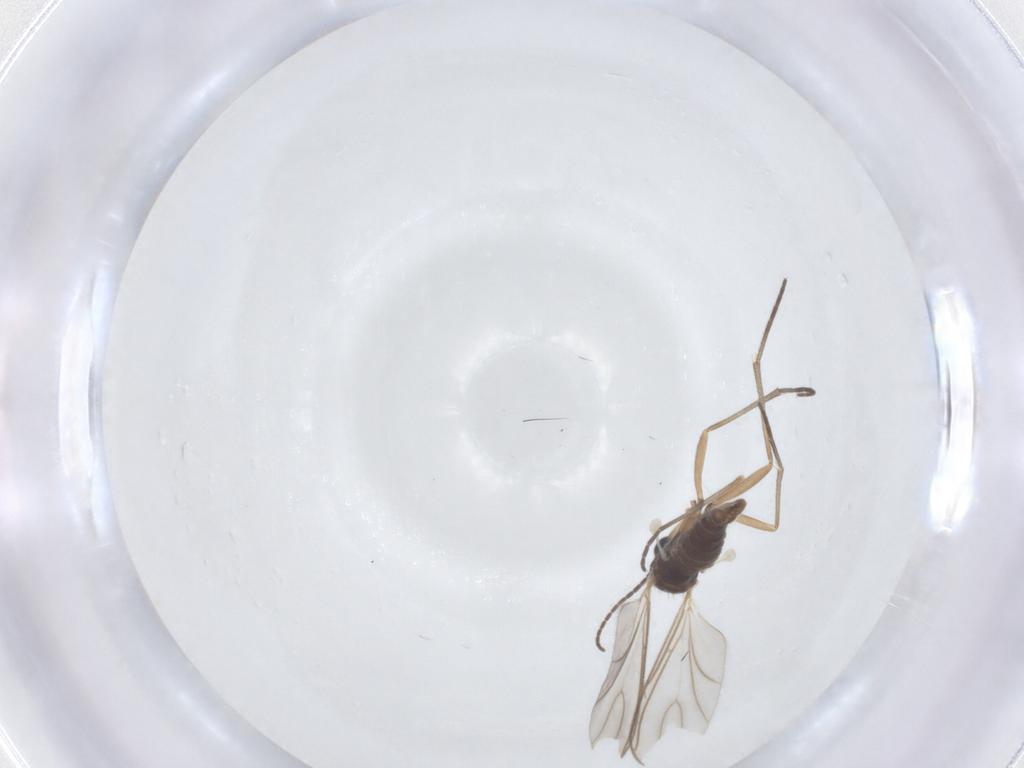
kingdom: Animalia
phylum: Arthropoda
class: Insecta
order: Diptera
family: Sciaridae
